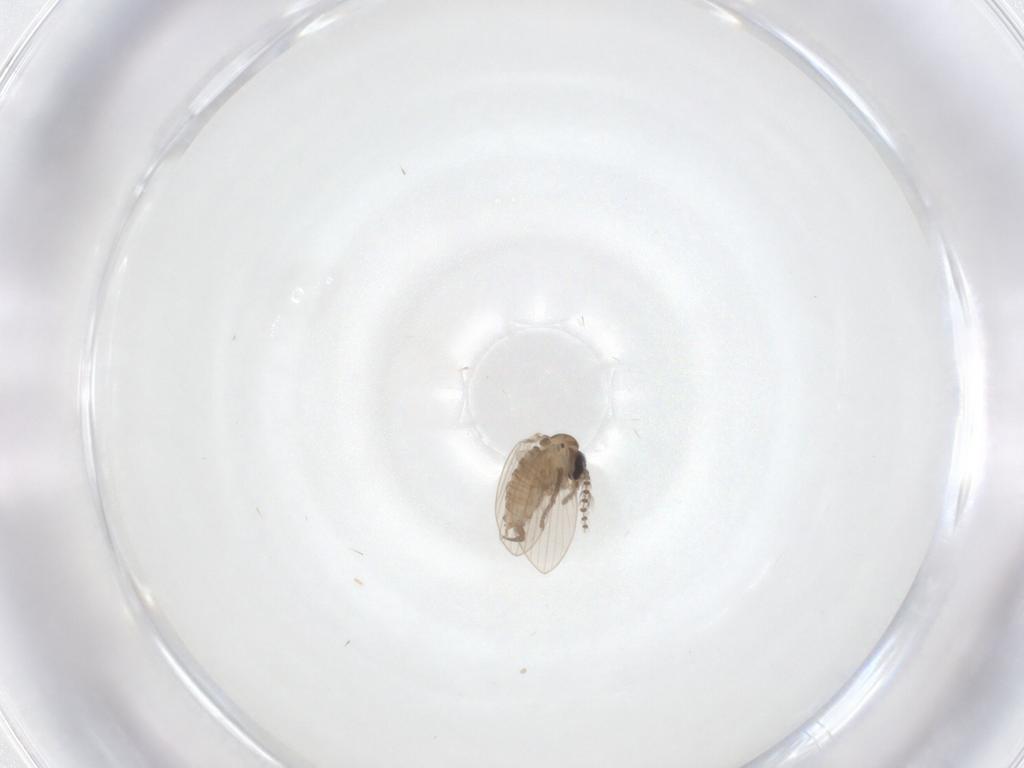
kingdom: Animalia
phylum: Arthropoda
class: Insecta
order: Diptera
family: Psychodidae
